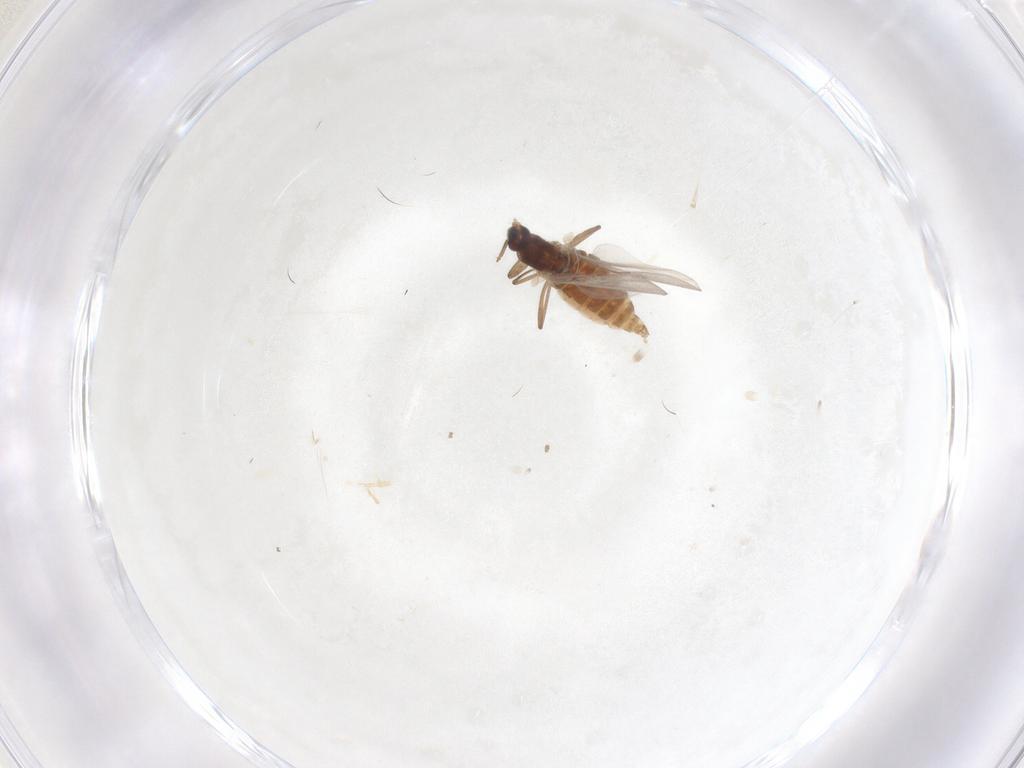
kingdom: Animalia
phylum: Arthropoda
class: Insecta
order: Diptera
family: Cecidomyiidae
